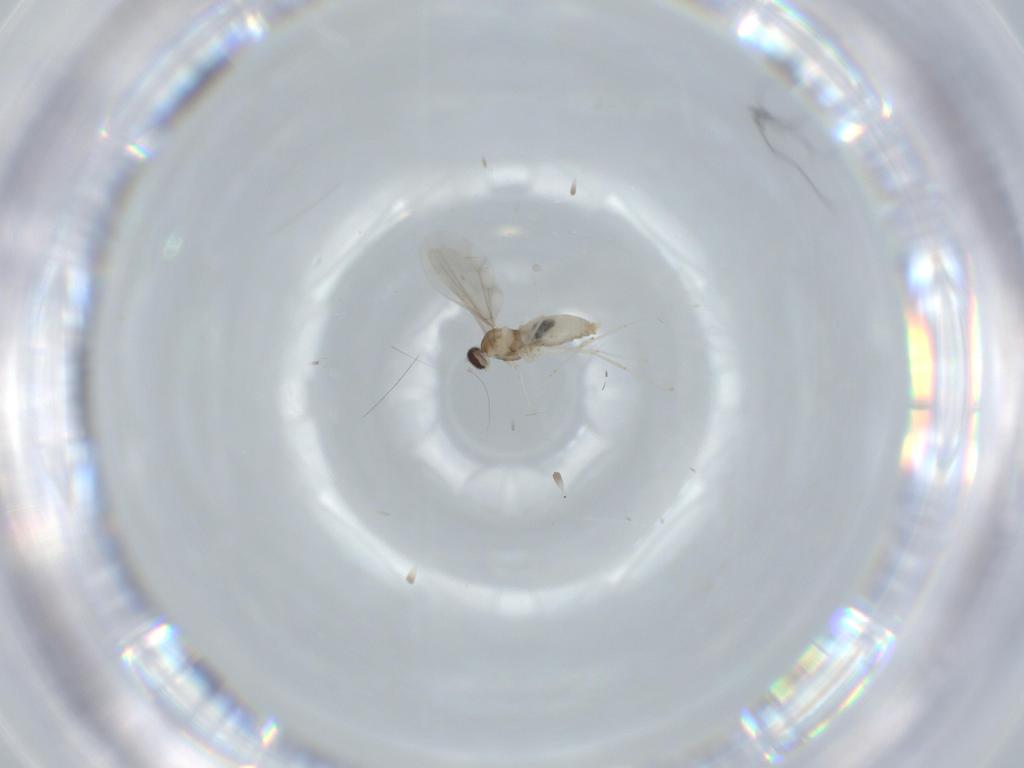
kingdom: Animalia
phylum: Arthropoda
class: Insecta
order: Diptera
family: Cecidomyiidae
